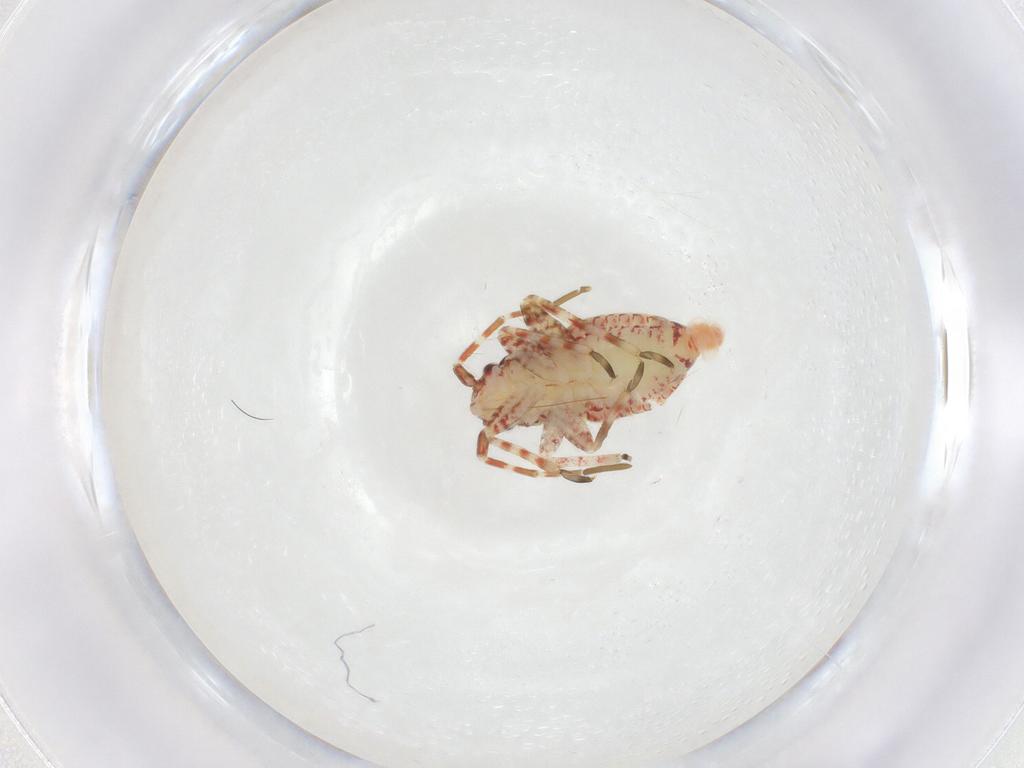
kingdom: Animalia
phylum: Arthropoda
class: Insecta
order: Hemiptera
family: Miridae
